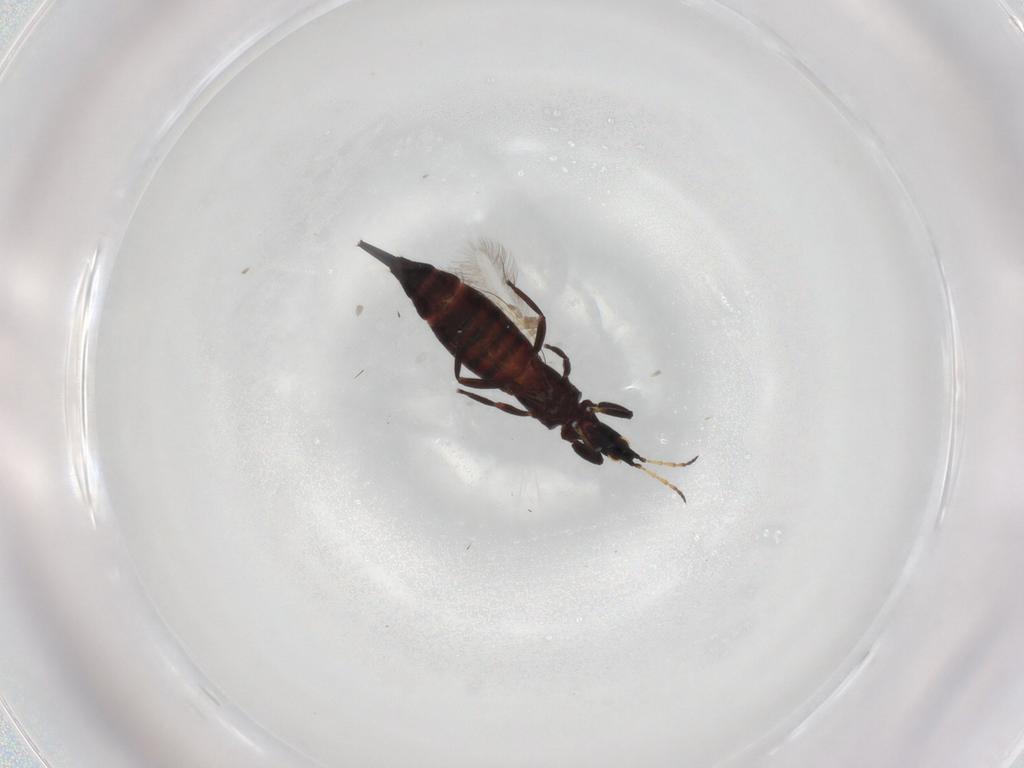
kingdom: Animalia
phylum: Arthropoda
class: Insecta
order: Thysanoptera
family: Phlaeothripidae
